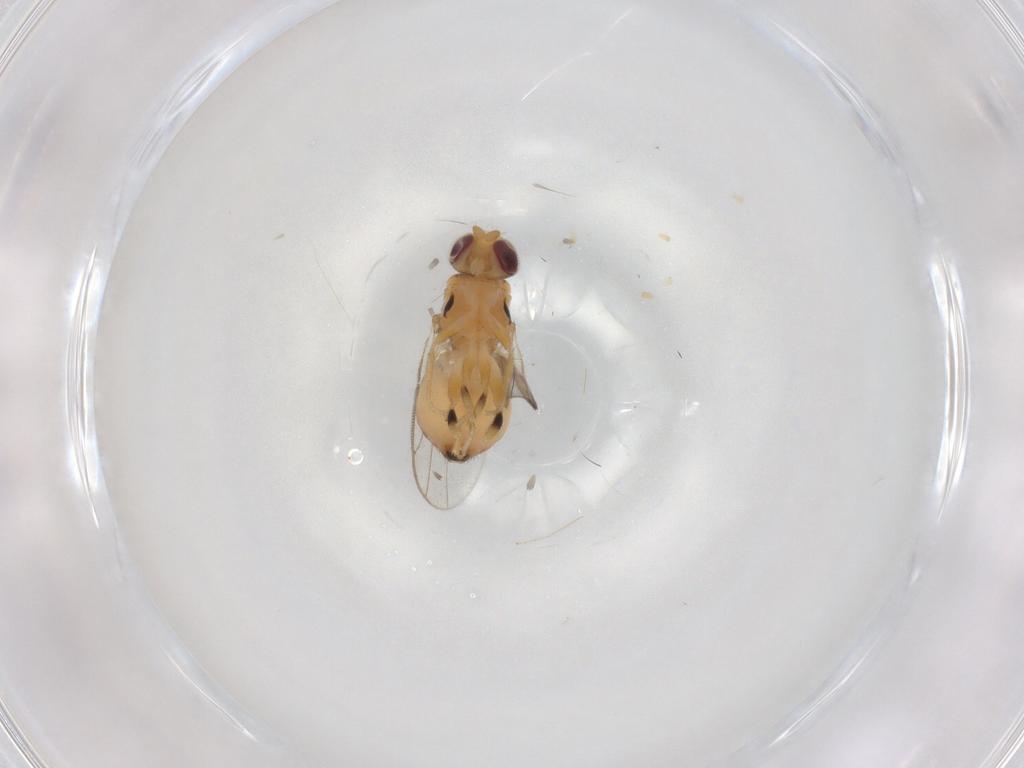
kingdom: Animalia
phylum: Arthropoda
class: Insecta
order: Diptera
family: Chloropidae
